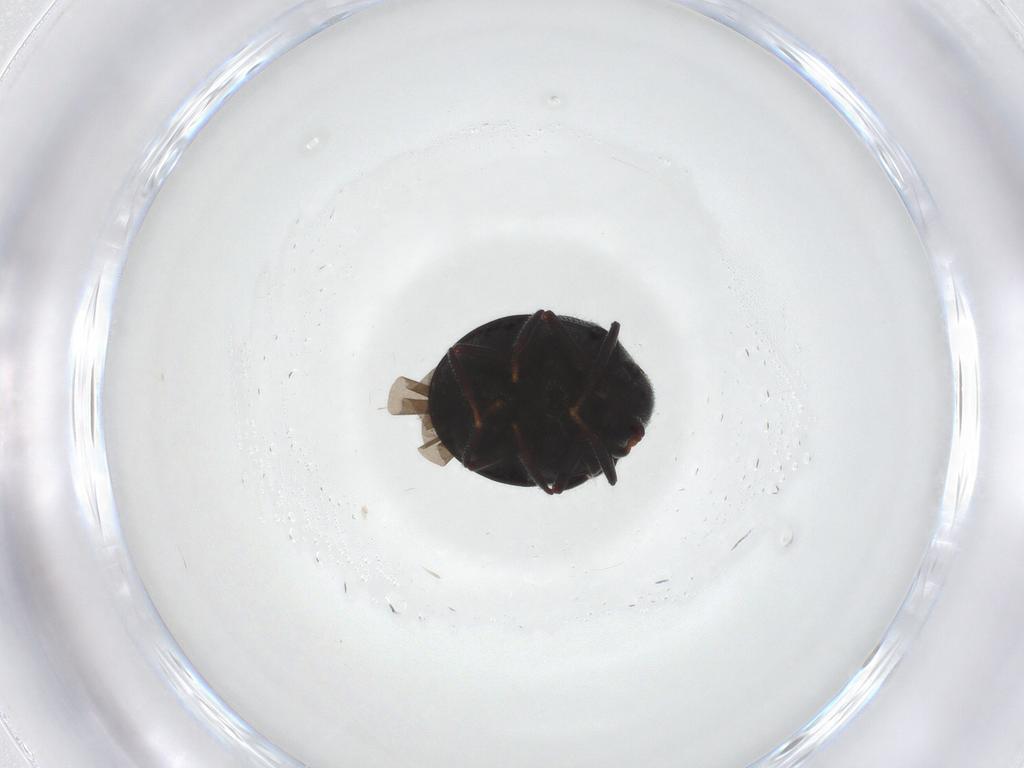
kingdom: Animalia
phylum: Arthropoda
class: Insecta
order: Coleoptera
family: Ptinidae
